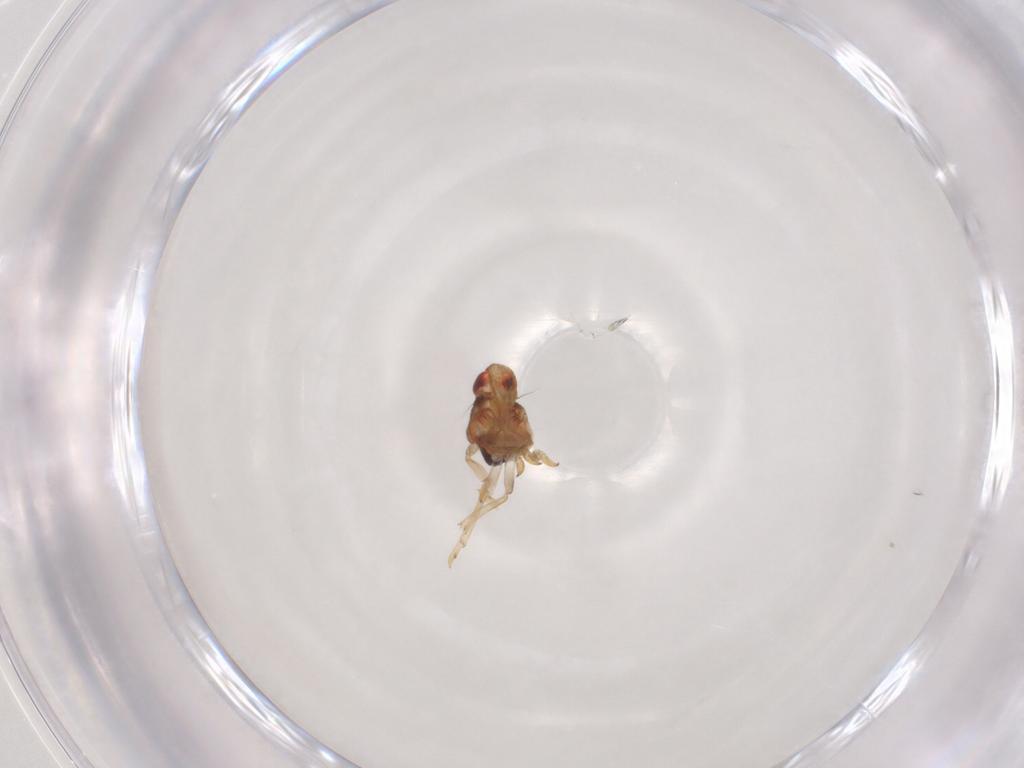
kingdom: Animalia
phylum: Arthropoda
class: Insecta
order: Hemiptera
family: Issidae
